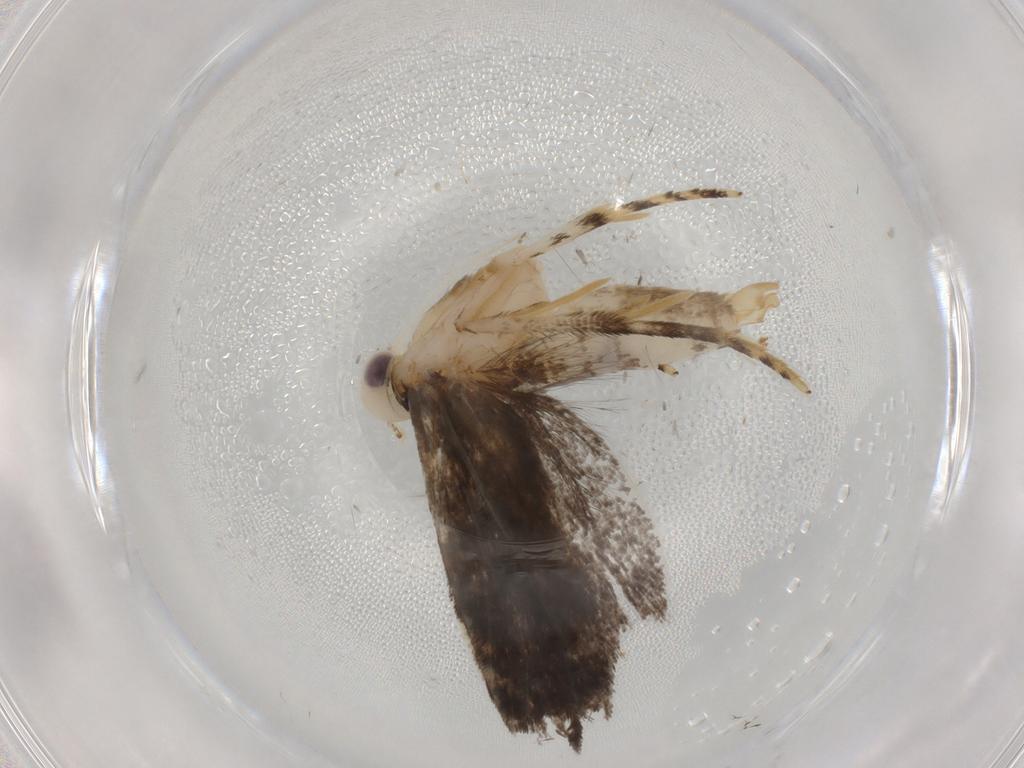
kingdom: Animalia
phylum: Arthropoda
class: Insecta
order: Lepidoptera
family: Gelechiidae
